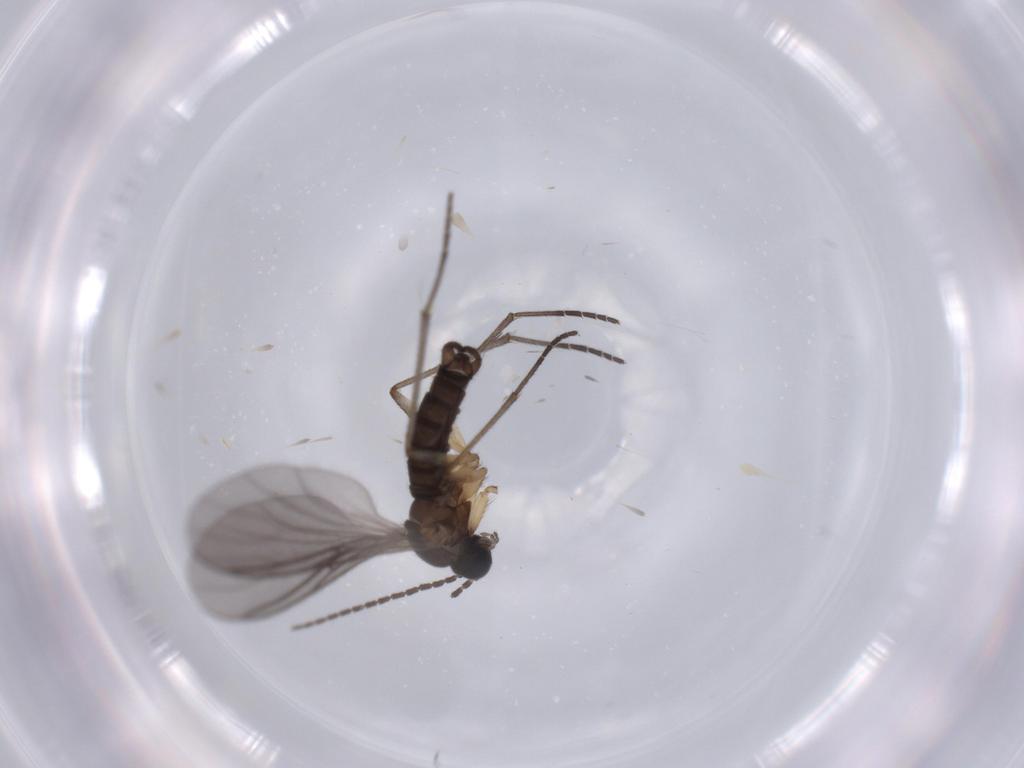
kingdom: Animalia
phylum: Arthropoda
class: Insecta
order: Diptera
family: Sciaridae
